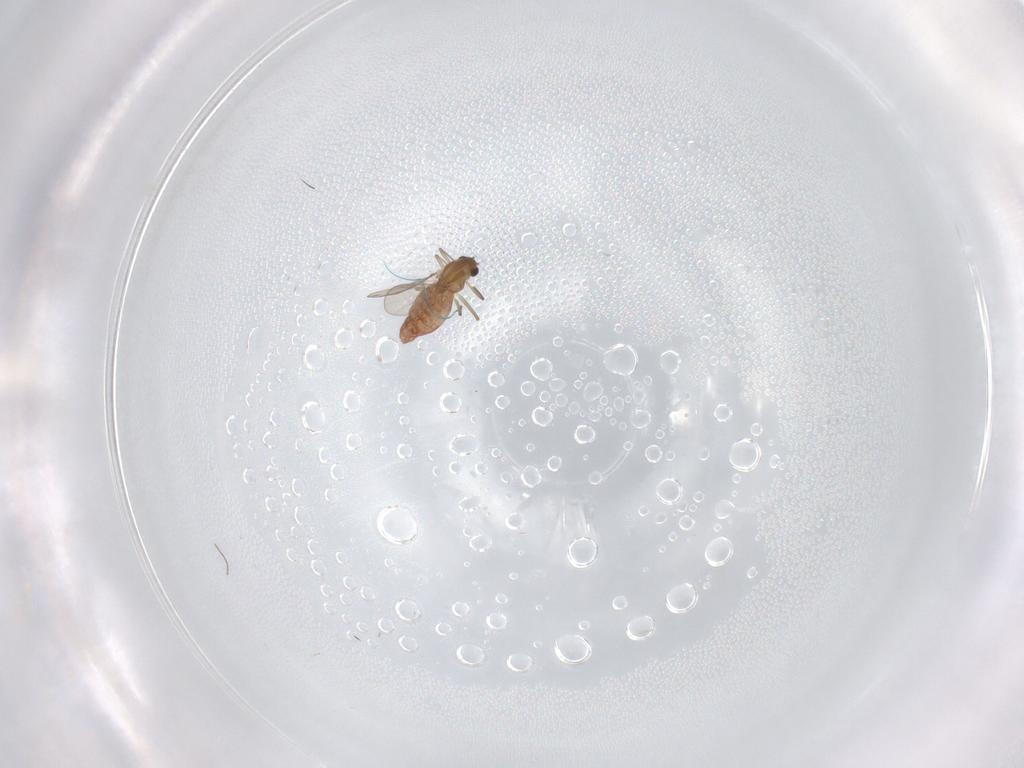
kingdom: Animalia
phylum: Arthropoda
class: Insecta
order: Diptera
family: Chironomidae
